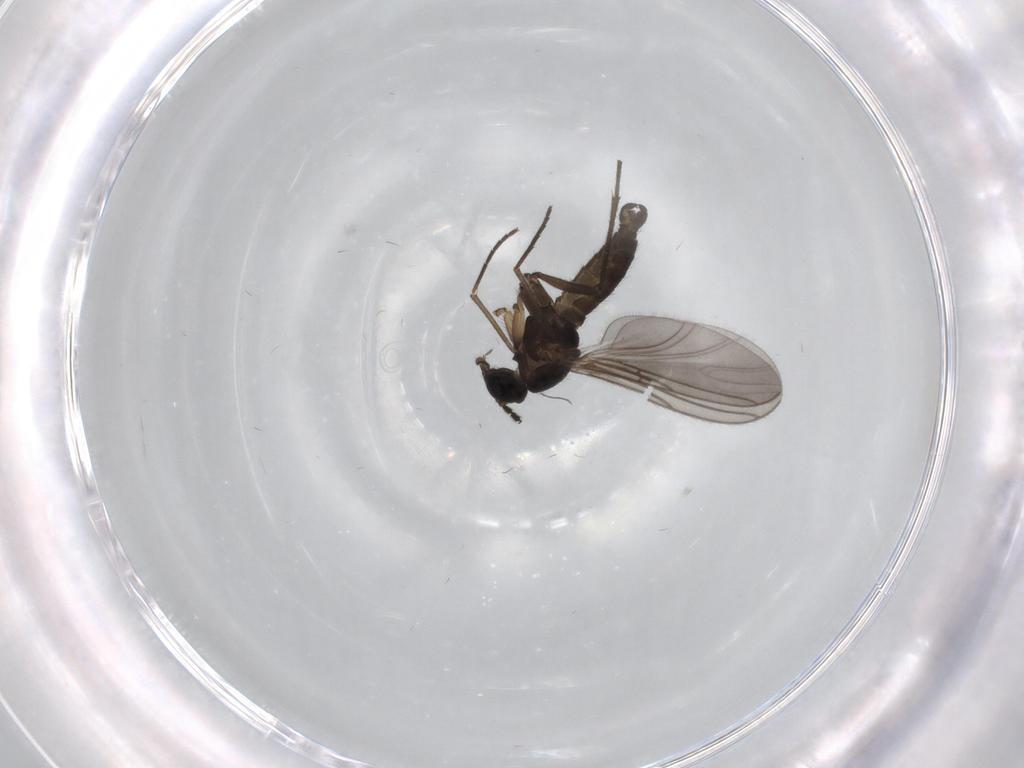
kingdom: Animalia
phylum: Arthropoda
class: Insecta
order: Diptera
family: Sciaridae
